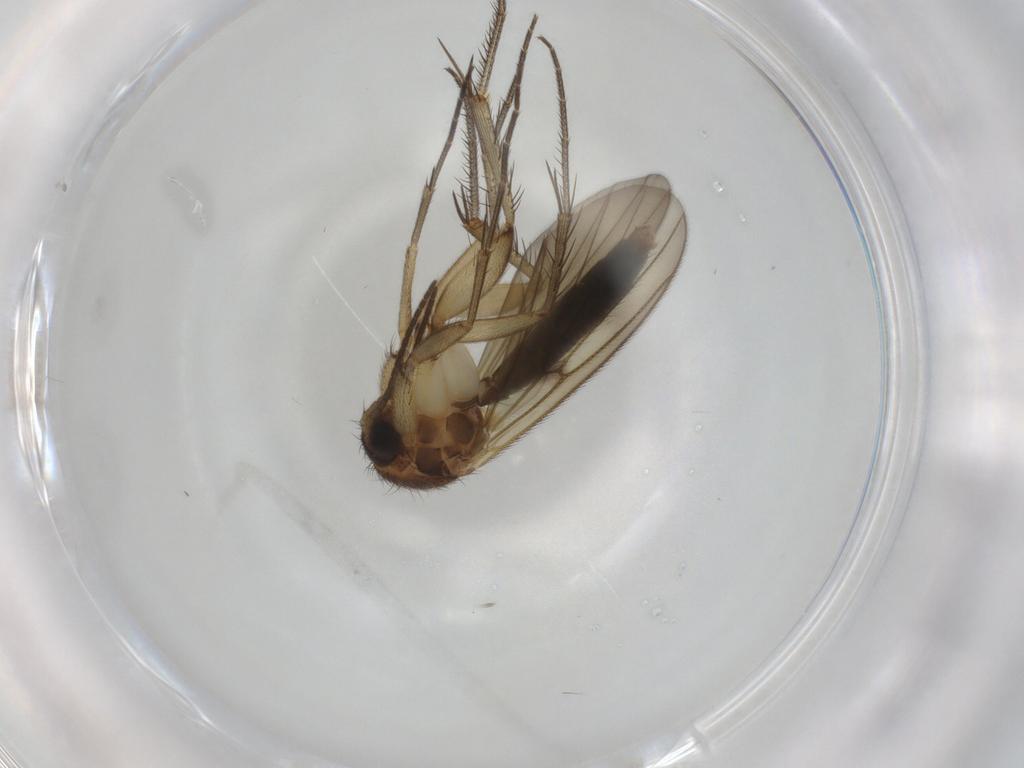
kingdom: Animalia
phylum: Arthropoda
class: Insecta
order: Diptera
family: Mycetophilidae
